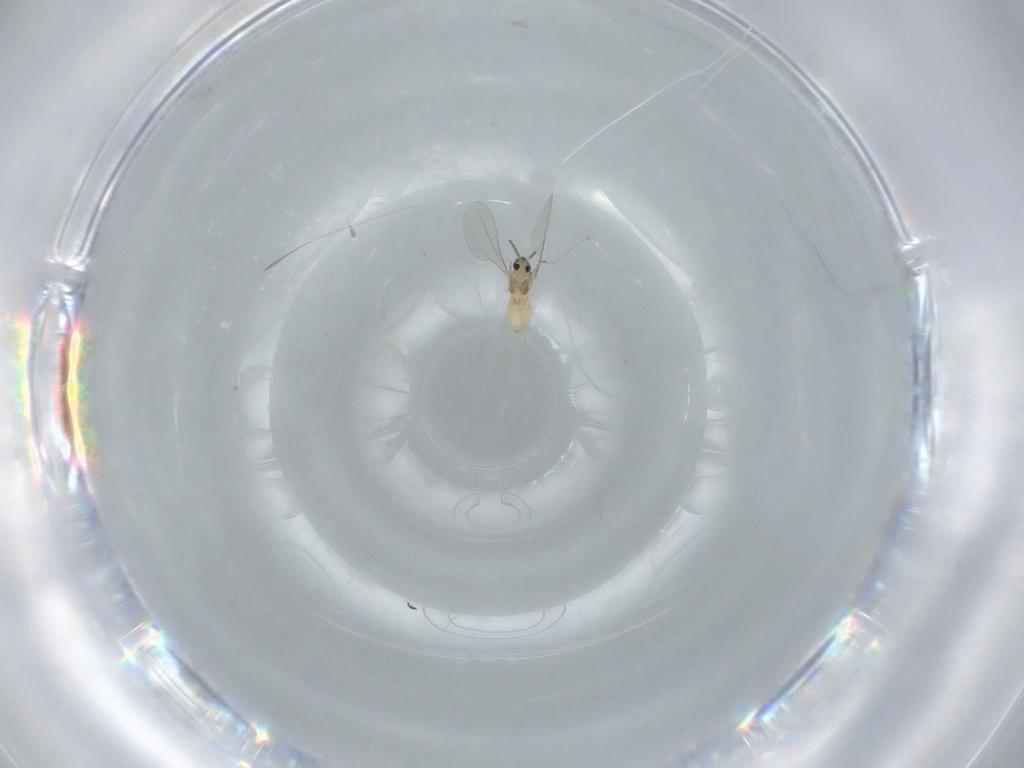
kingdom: Animalia
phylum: Arthropoda
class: Insecta
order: Diptera
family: Cecidomyiidae
